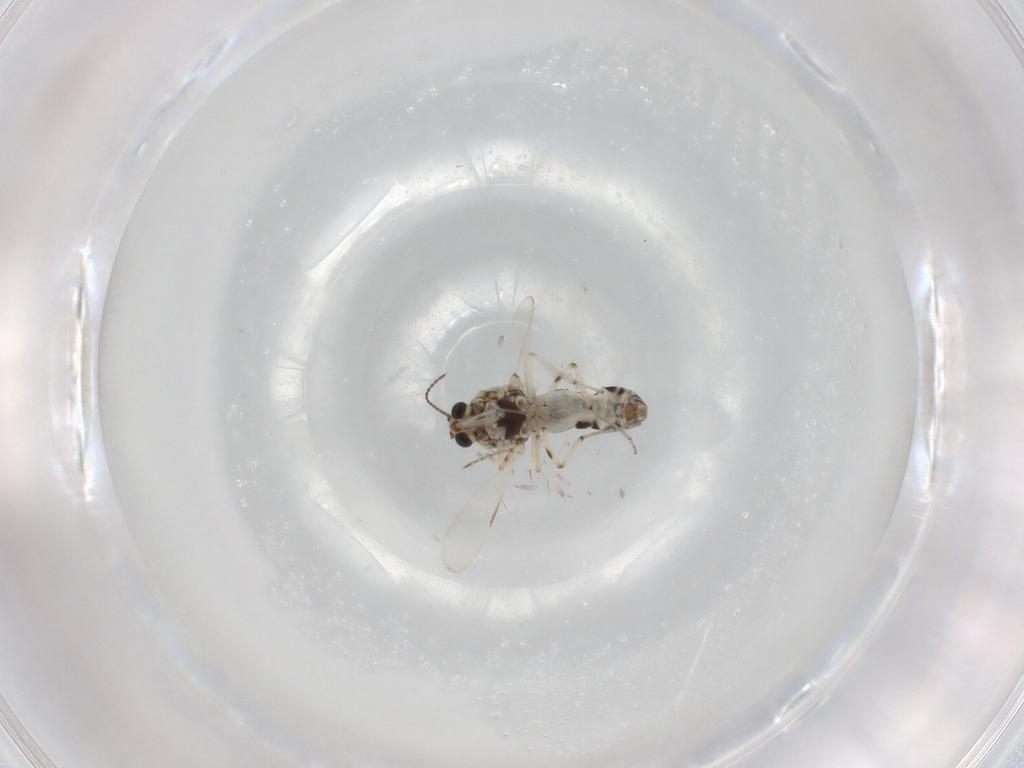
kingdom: Animalia
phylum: Arthropoda
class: Insecta
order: Diptera
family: Ceratopogonidae
